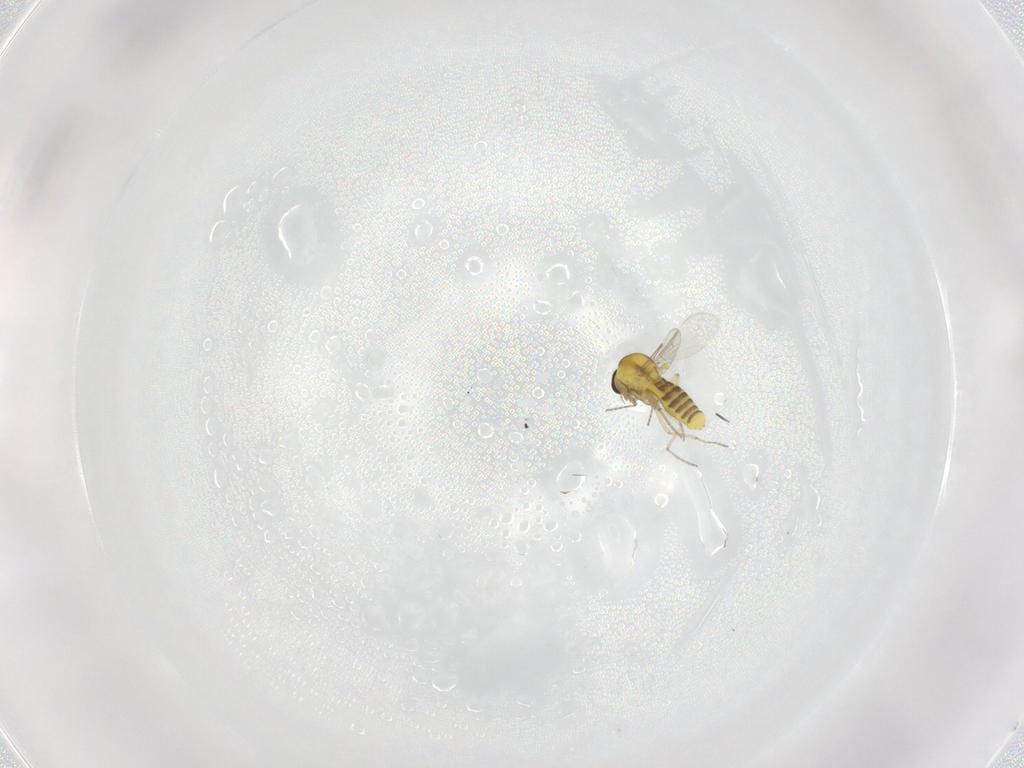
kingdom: Animalia
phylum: Arthropoda
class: Insecta
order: Diptera
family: Ceratopogonidae
